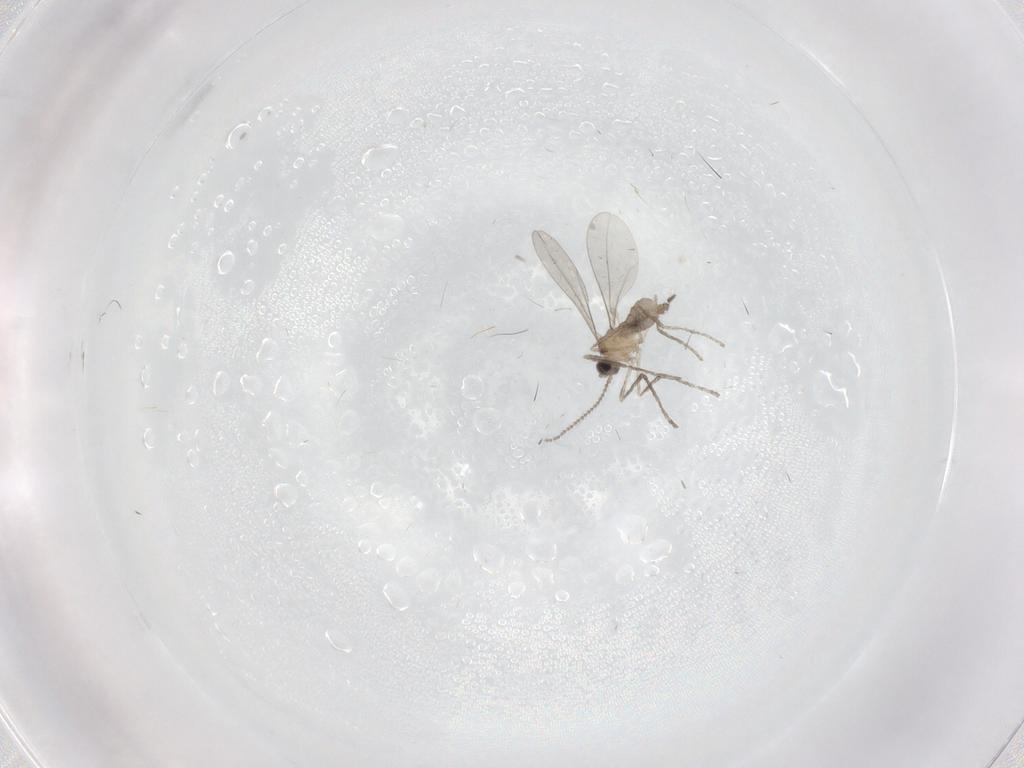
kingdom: Animalia
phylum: Arthropoda
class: Insecta
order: Diptera
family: Cecidomyiidae
